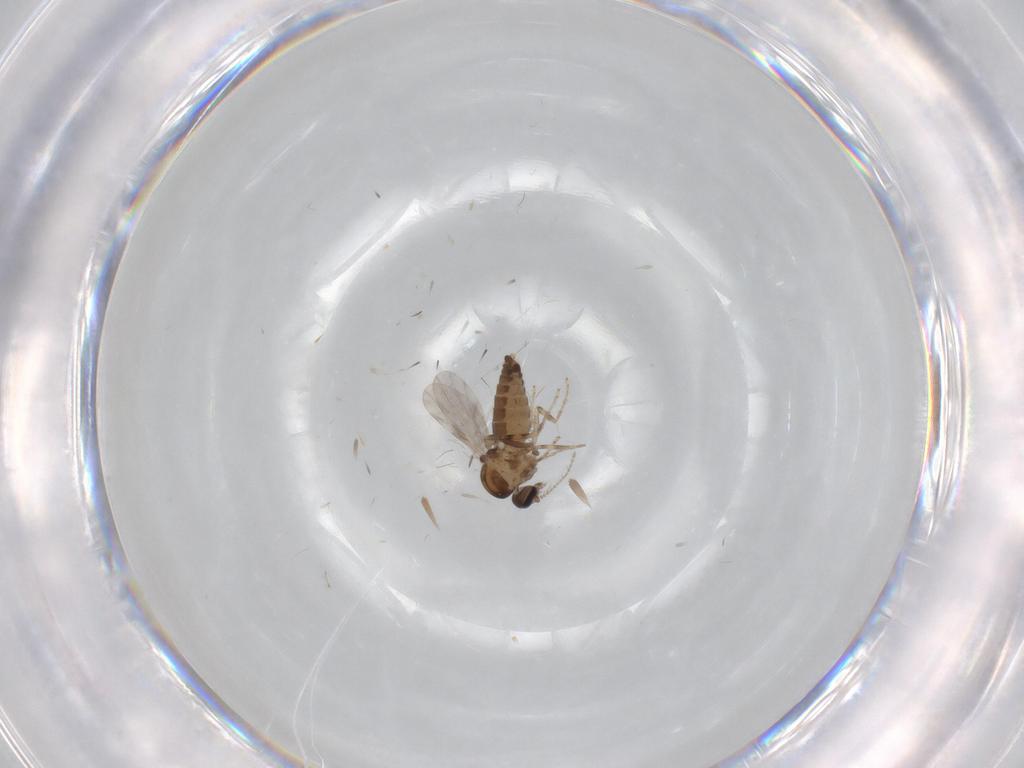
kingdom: Animalia
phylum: Arthropoda
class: Insecta
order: Diptera
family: Ceratopogonidae
